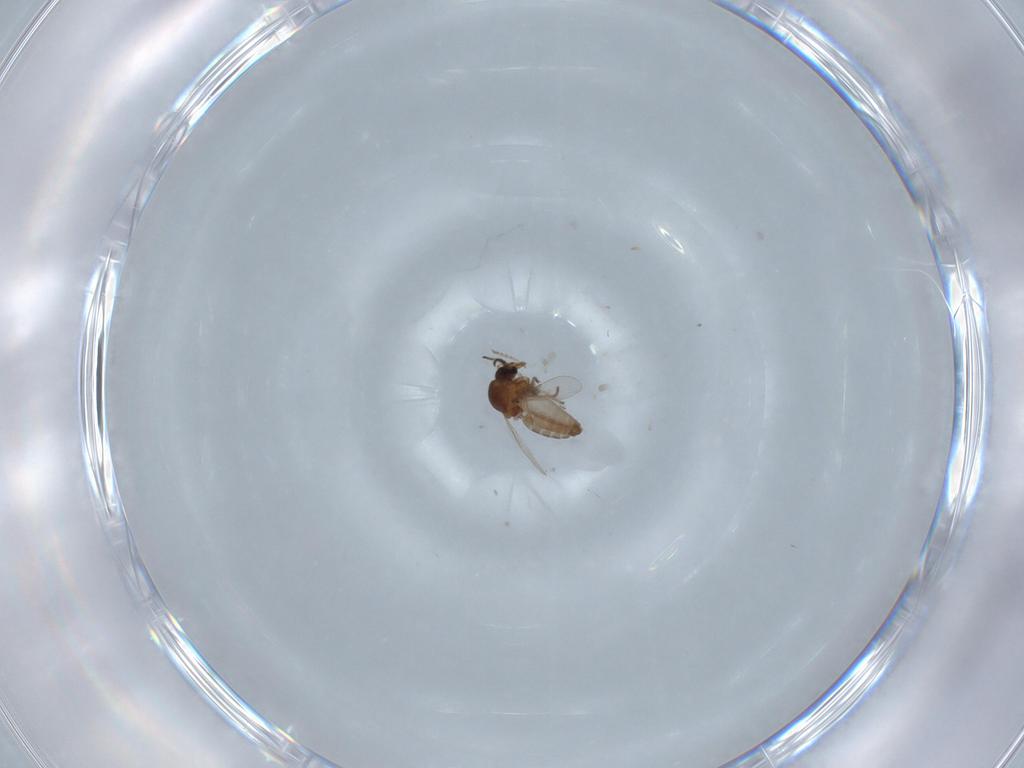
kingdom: Animalia
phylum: Arthropoda
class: Insecta
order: Diptera
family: Ceratopogonidae
